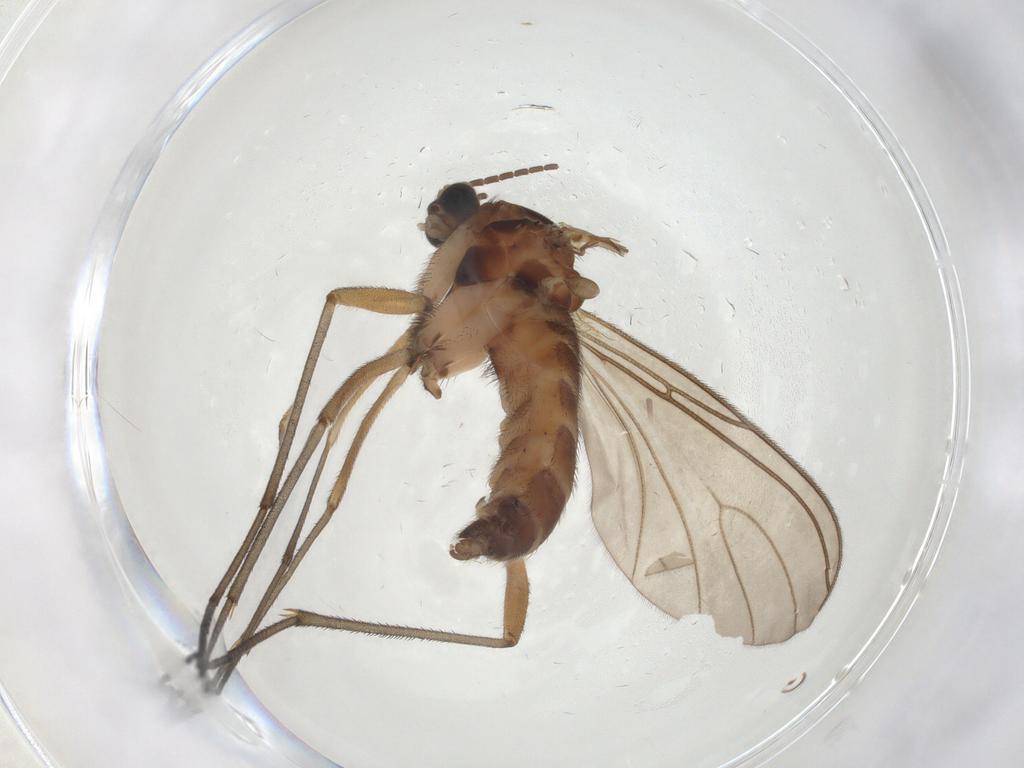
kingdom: Animalia
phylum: Arthropoda
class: Insecta
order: Diptera
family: Sciaridae
